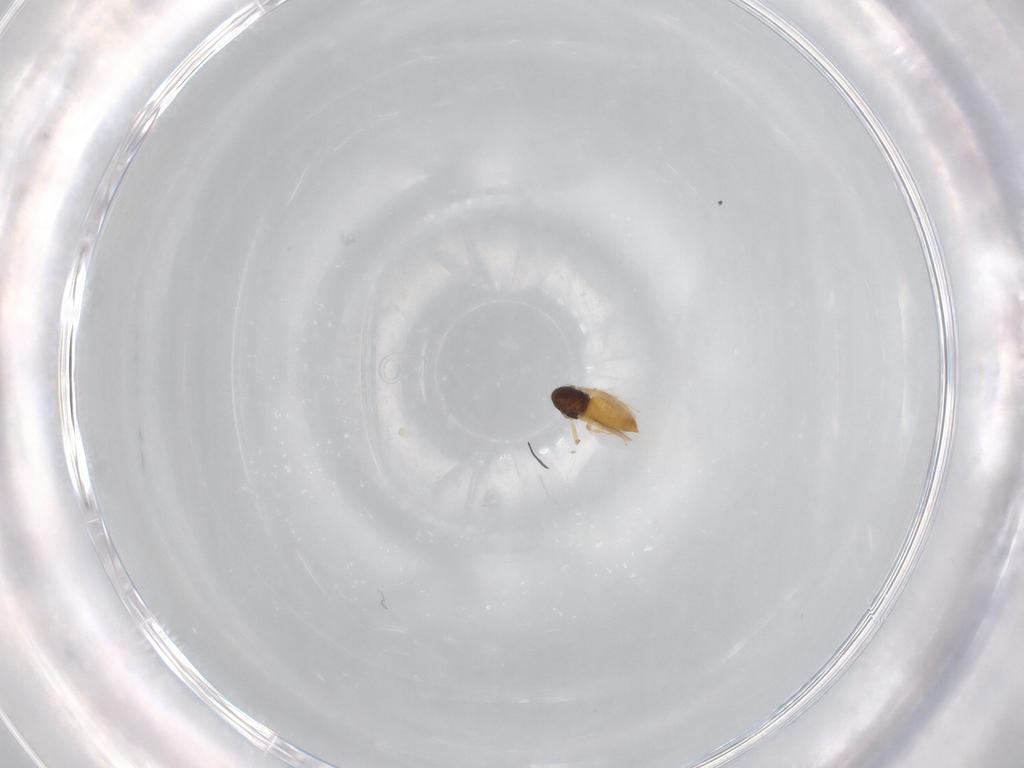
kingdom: Animalia
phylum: Arthropoda
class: Insecta
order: Hymenoptera
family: Scelionidae
